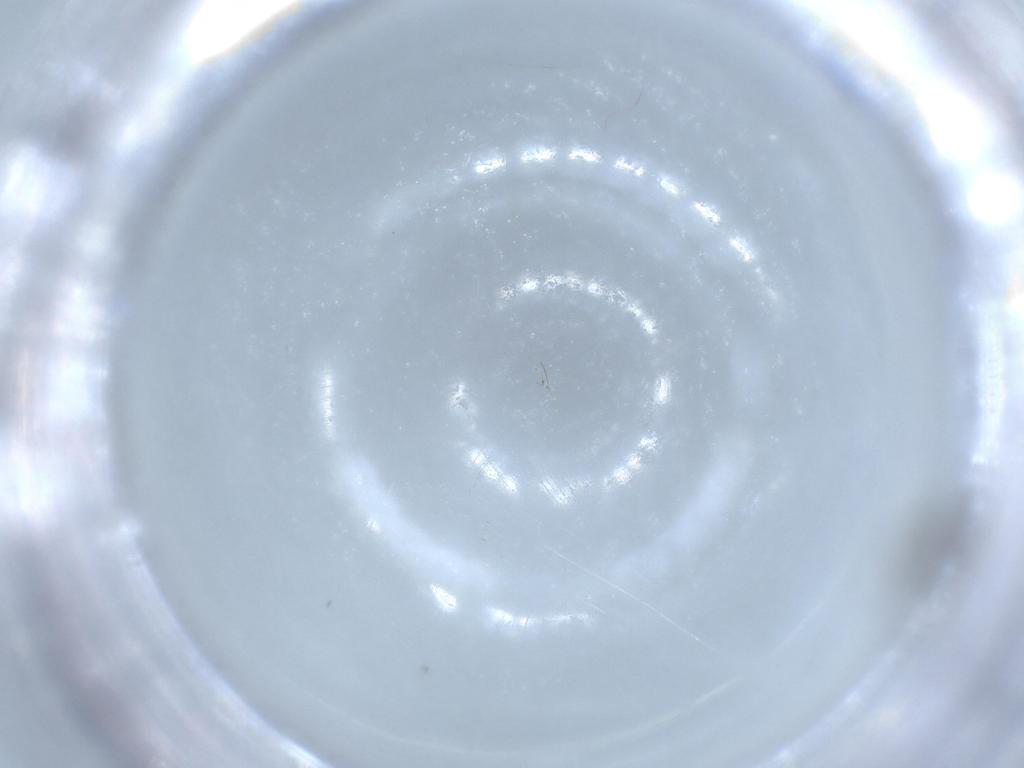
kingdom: Animalia
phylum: Arthropoda
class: Insecta
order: Diptera
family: Cecidomyiidae
